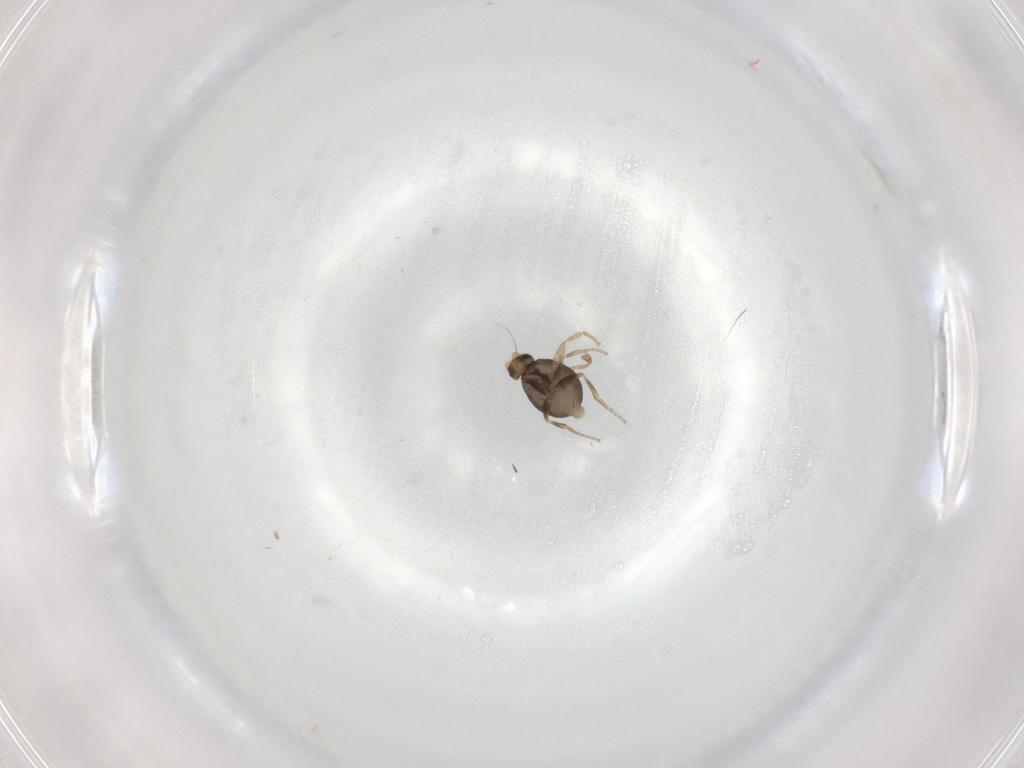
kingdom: Animalia
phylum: Arthropoda
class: Insecta
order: Diptera
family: Phoridae
